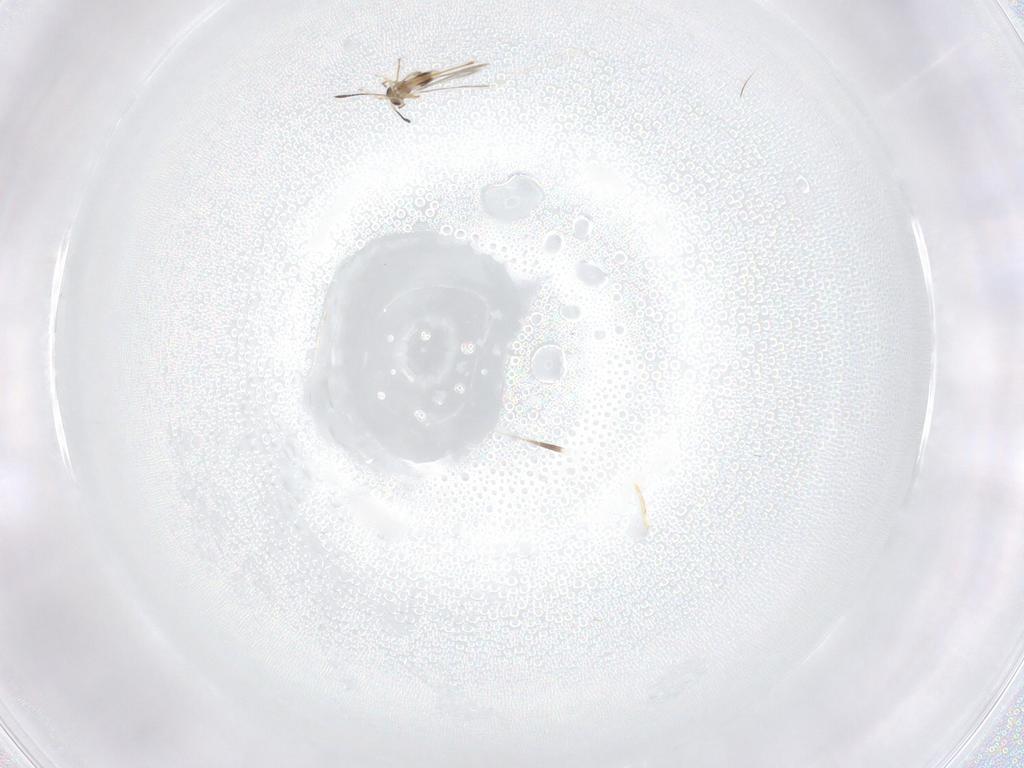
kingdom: Animalia
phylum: Arthropoda
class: Insecta
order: Hymenoptera
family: Mymaridae
